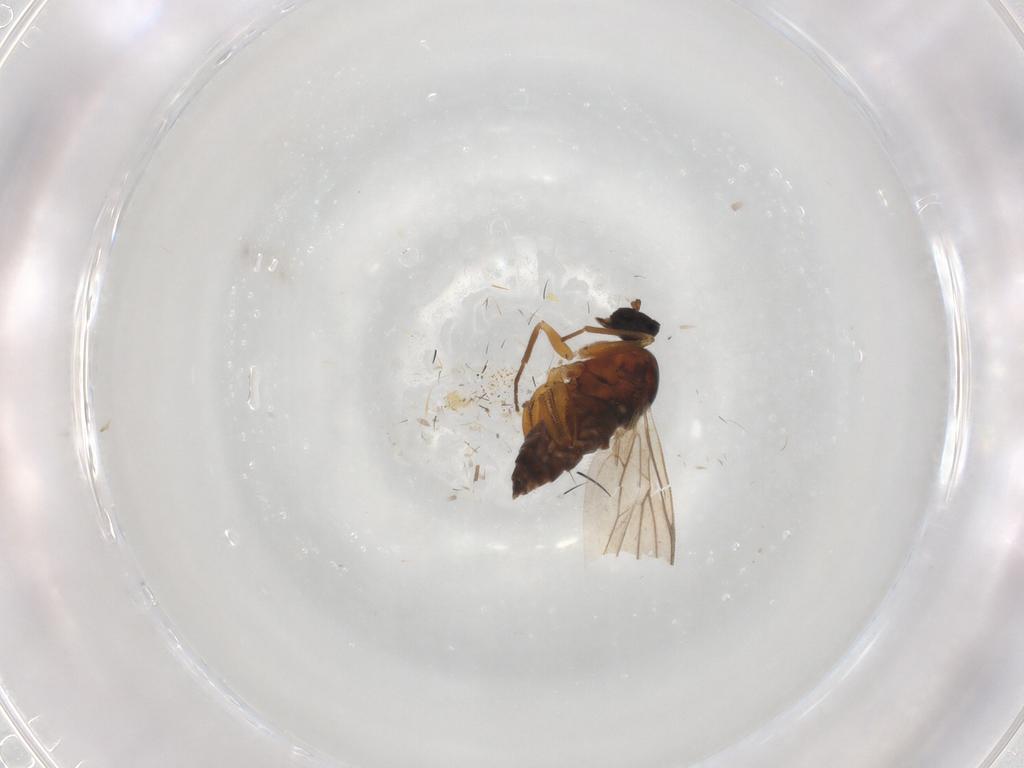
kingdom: Animalia
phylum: Arthropoda
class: Insecta
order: Diptera
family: Hybotidae
